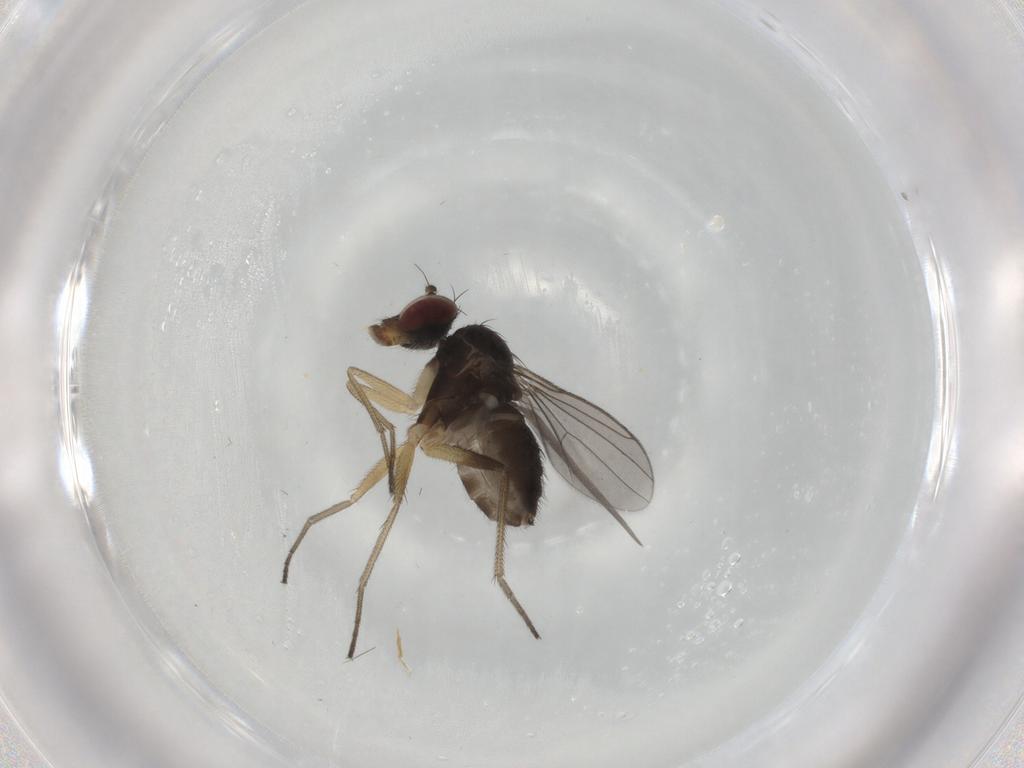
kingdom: Animalia
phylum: Arthropoda
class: Insecta
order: Diptera
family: Dolichopodidae
